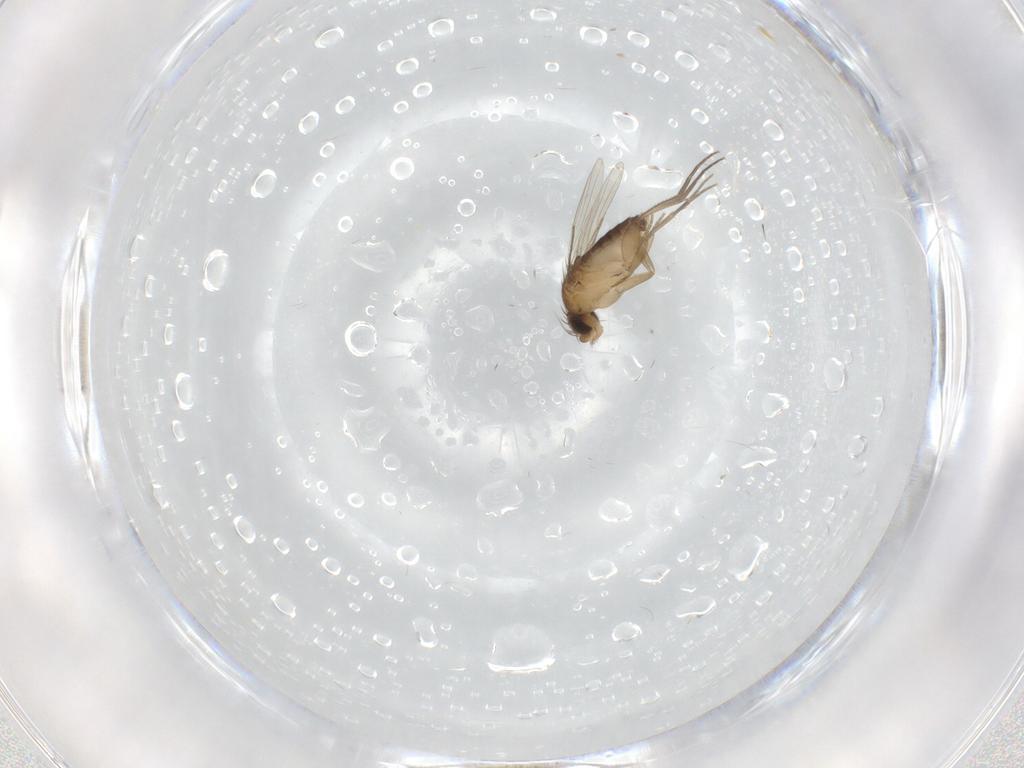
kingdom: Animalia
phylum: Arthropoda
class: Insecta
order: Diptera
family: Phoridae
